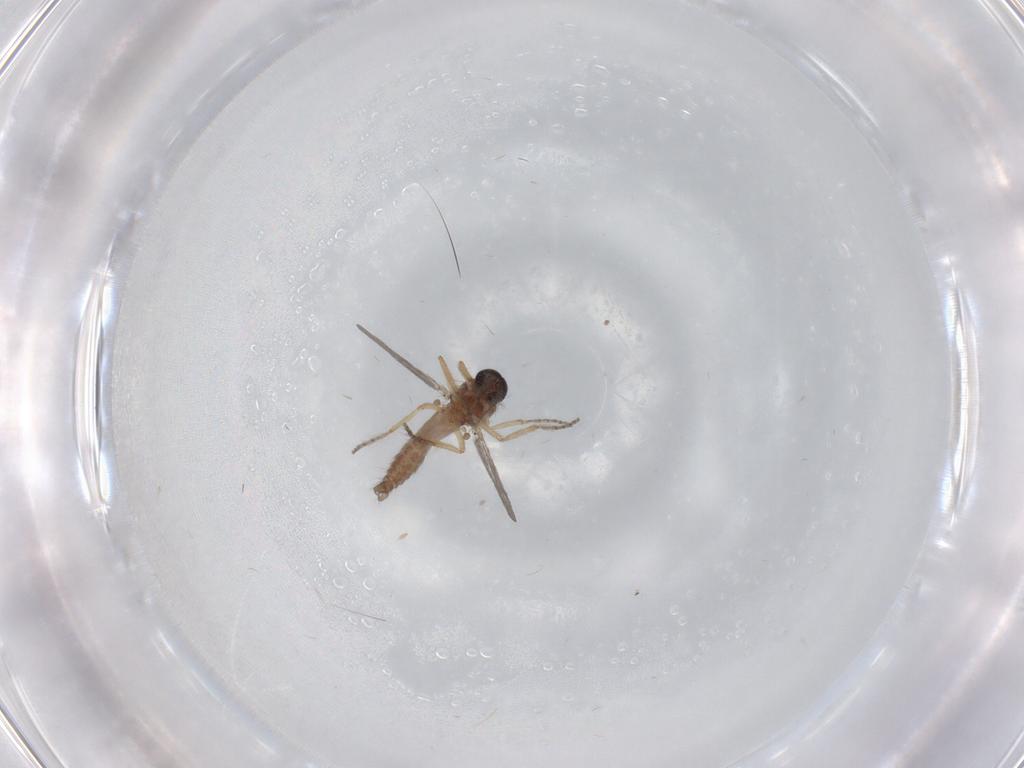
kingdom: Animalia
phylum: Arthropoda
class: Insecta
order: Diptera
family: Ceratopogonidae
